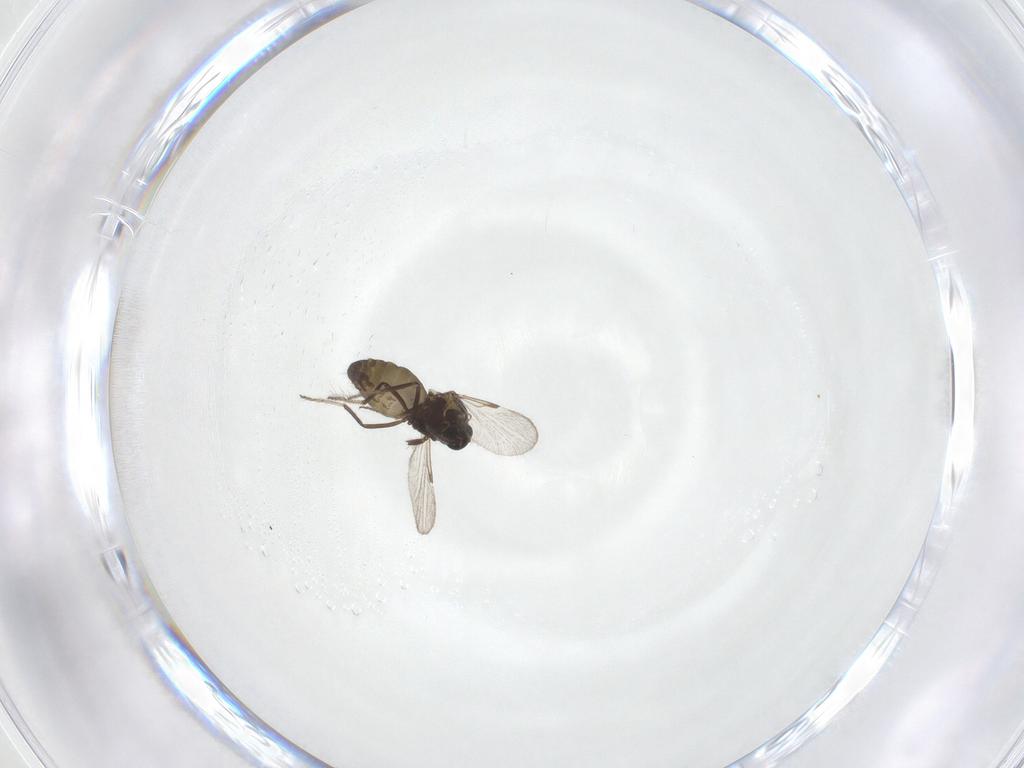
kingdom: Animalia
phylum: Arthropoda
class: Insecta
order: Diptera
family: Ceratopogonidae
